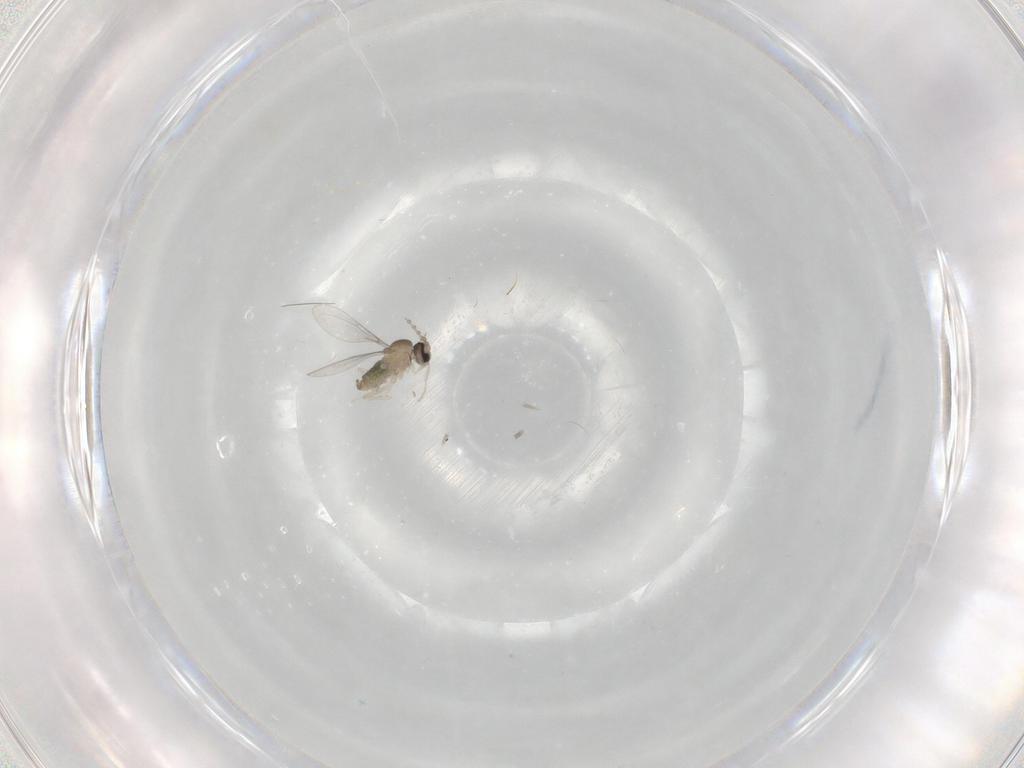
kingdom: Animalia
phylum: Arthropoda
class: Insecta
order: Diptera
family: Cecidomyiidae
